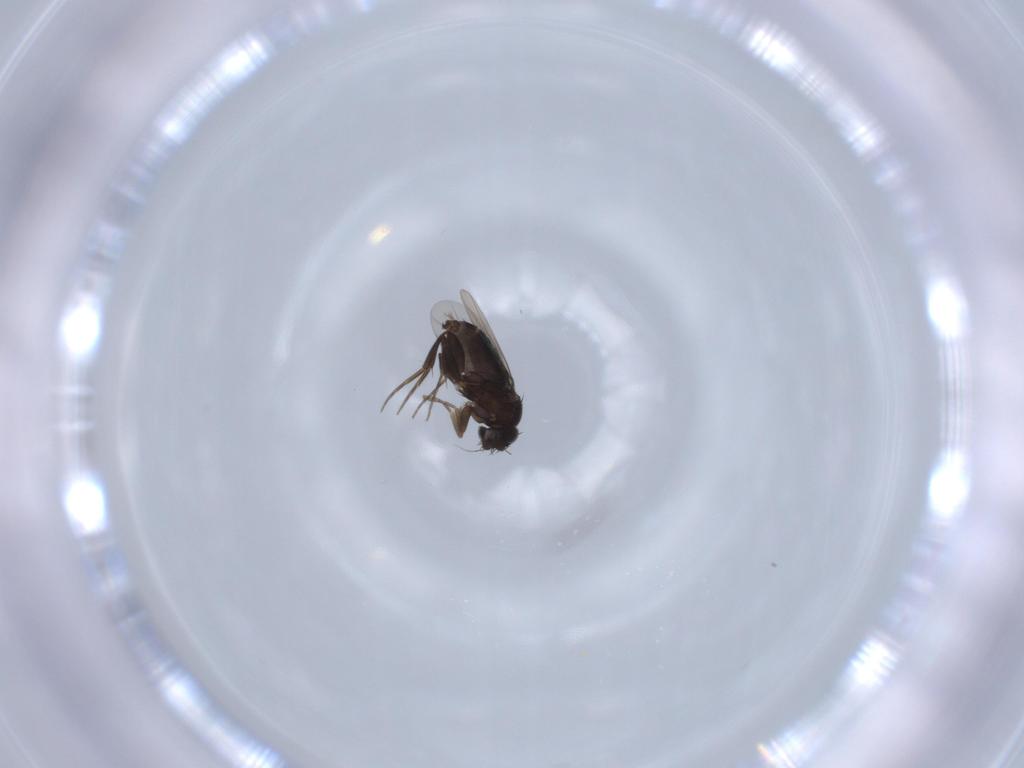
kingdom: Animalia
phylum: Arthropoda
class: Insecta
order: Diptera
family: Phoridae
